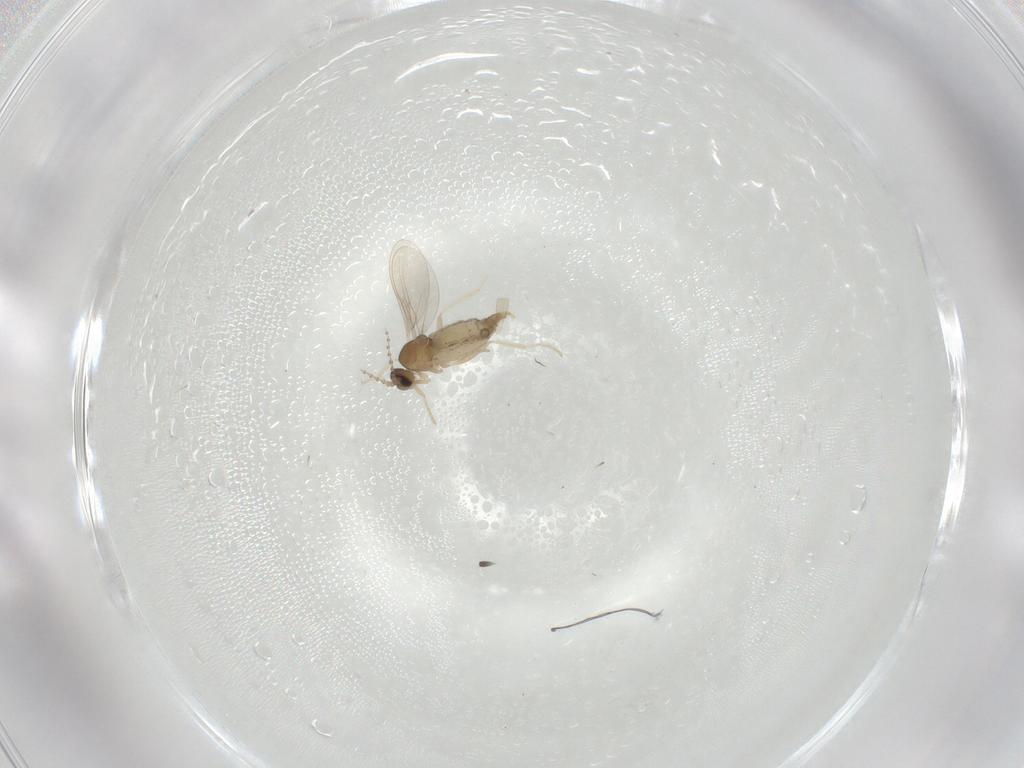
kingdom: Animalia
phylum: Arthropoda
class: Insecta
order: Diptera
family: Cecidomyiidae
